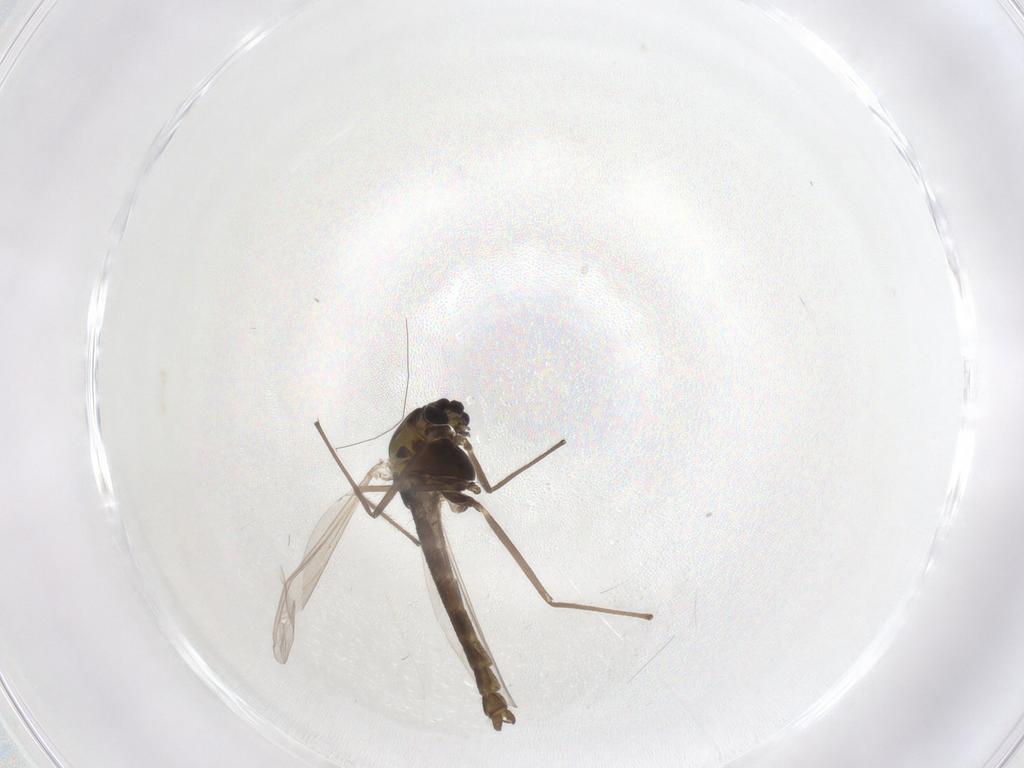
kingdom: Animalia
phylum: Arthropoda
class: Insecta
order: Diptera
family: Chironomidae
